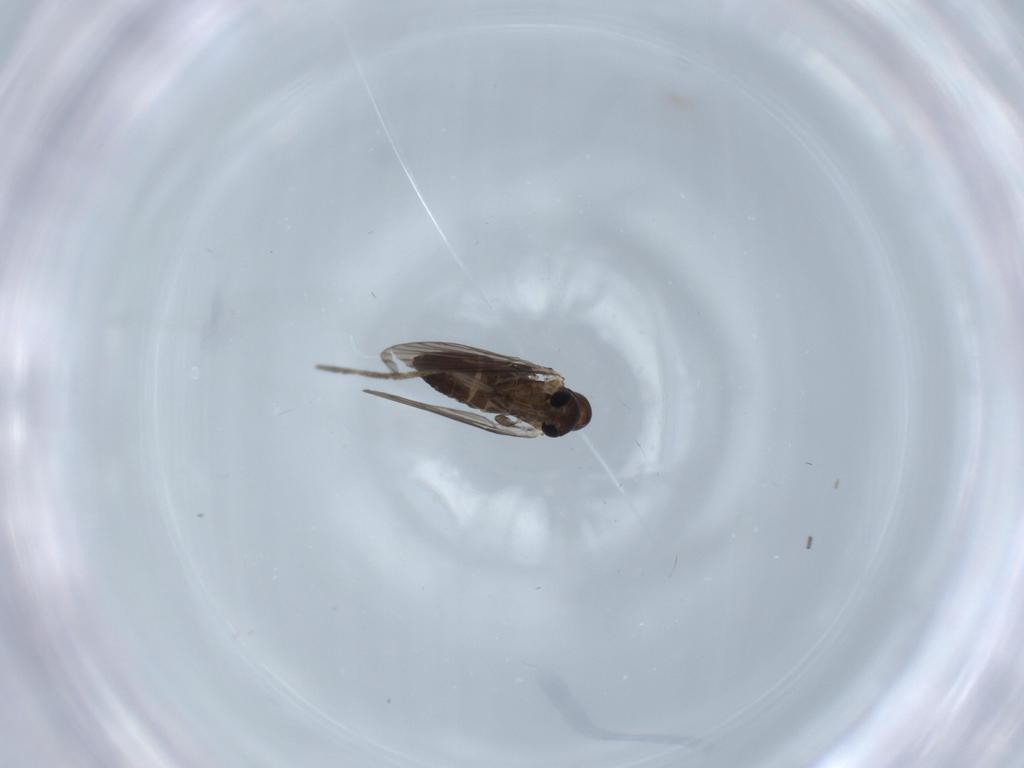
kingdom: Animalia
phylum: Arthropoda
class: Insecta
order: Diptera
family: Psychodidae
